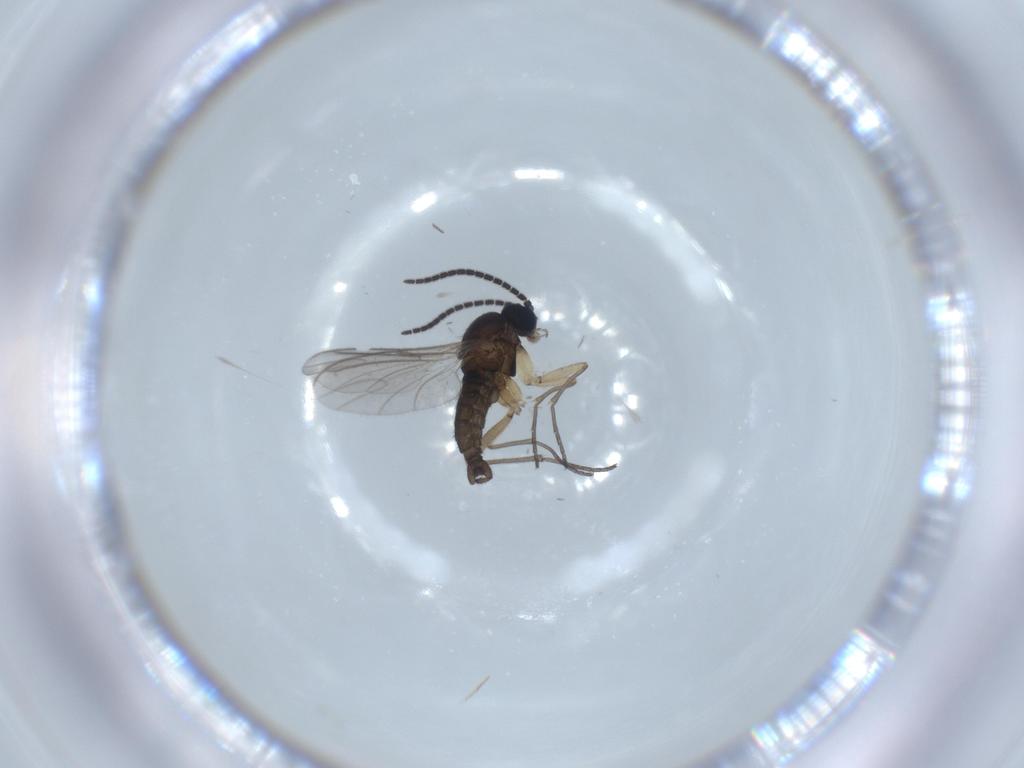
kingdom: Animalia
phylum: Arthropoda
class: Insecta
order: Diptera
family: Sciaridae
